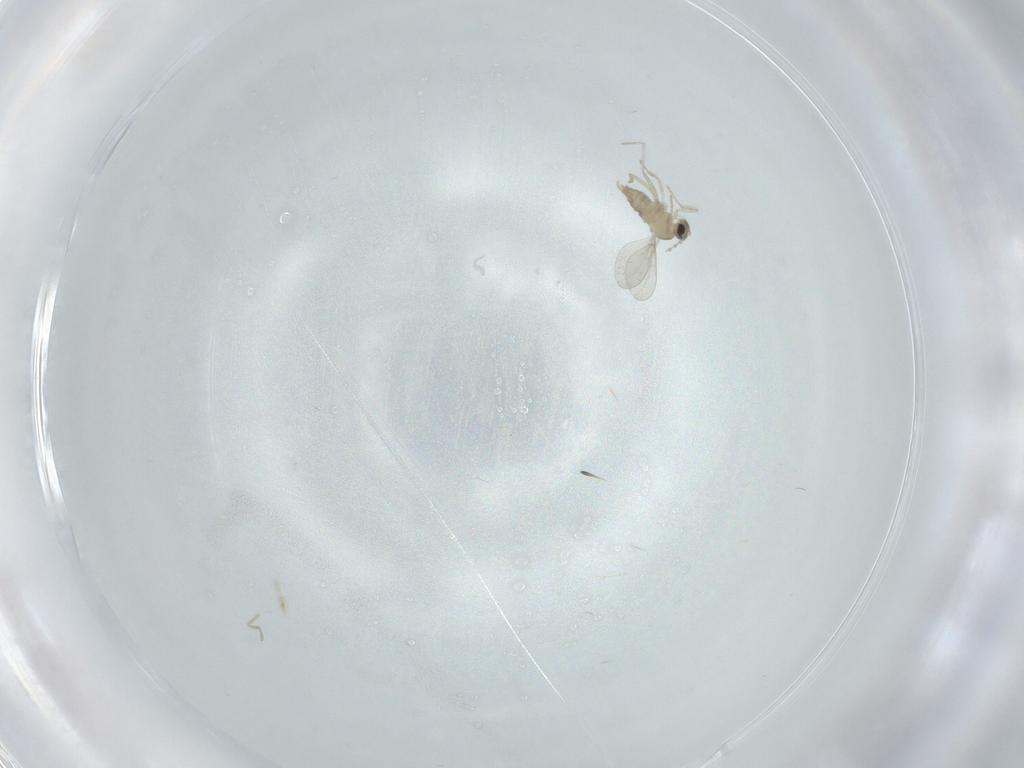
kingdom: Animalia
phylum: Arthropoda
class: Insecta
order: Diptera
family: Cecidomyiidae
